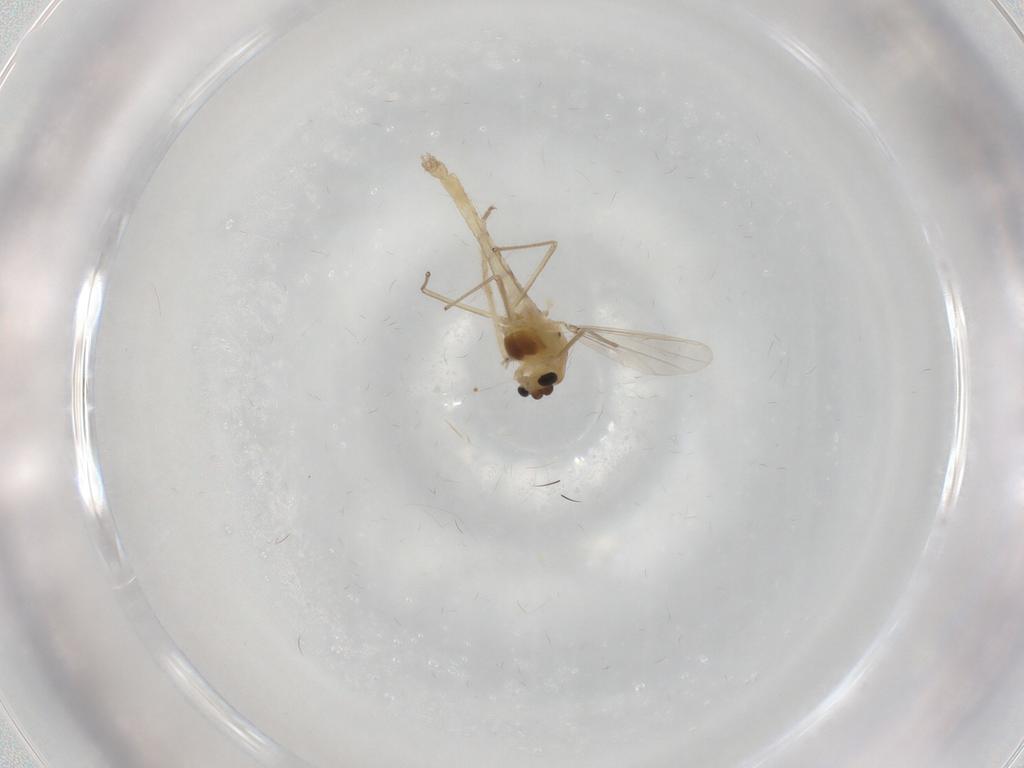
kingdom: Animalia
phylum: Arthropoda
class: Insecta
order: Diptera
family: Chironomidae
